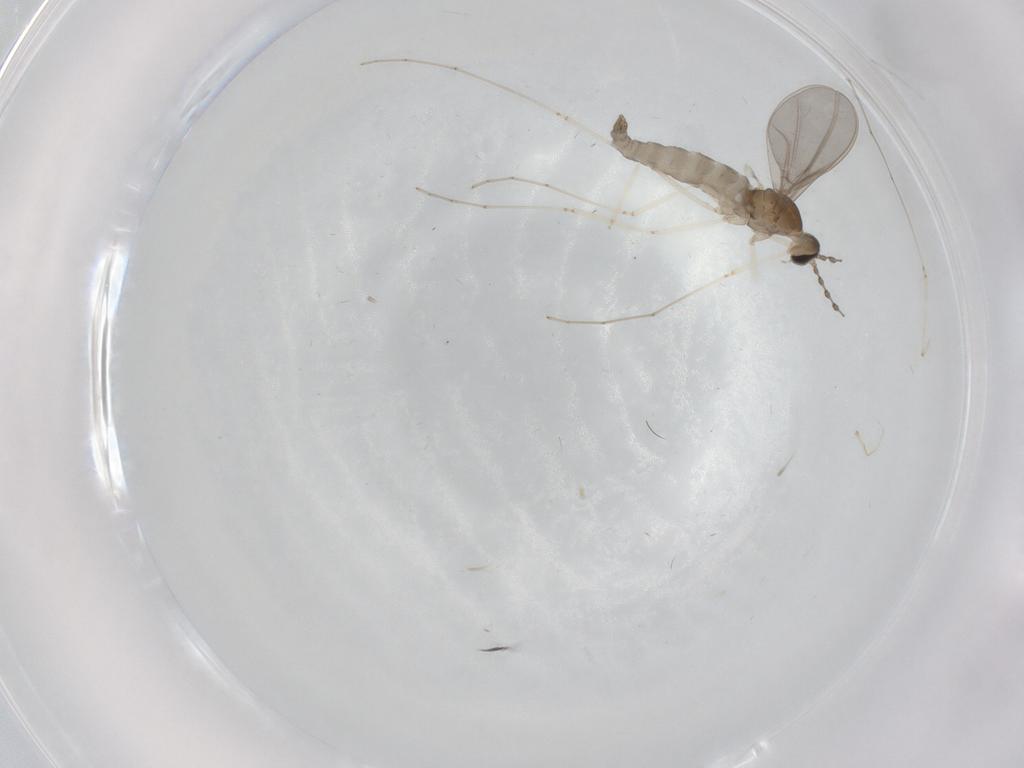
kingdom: Animalia
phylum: Arthropoda
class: Insecta
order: Diptera
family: Cecidomyiidae
